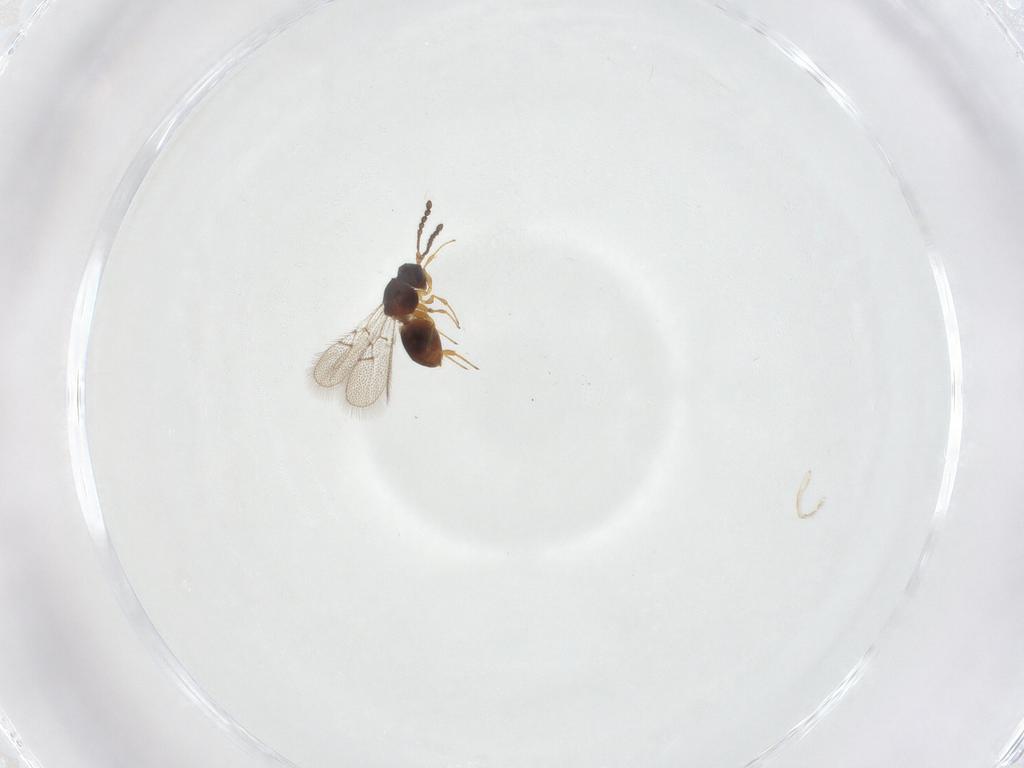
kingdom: Animalia
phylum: Arthropoda
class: Insecta
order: Hymenoptera
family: Figitidae
